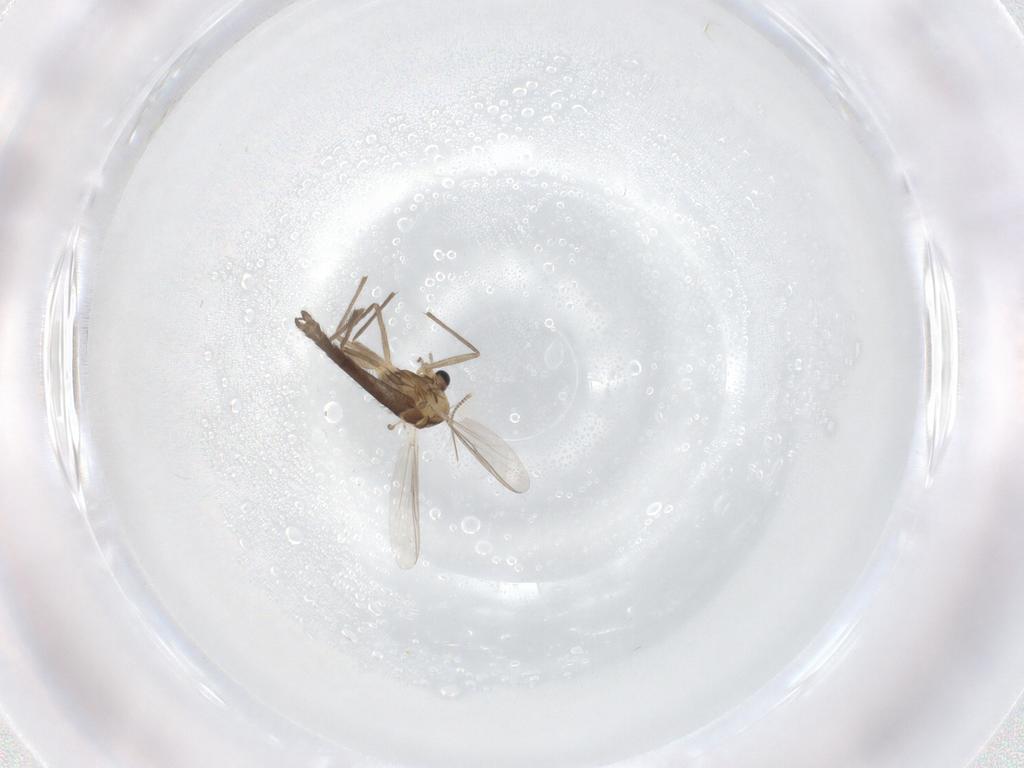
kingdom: Animalia
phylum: Arthropoda
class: Insecta
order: Diptera
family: Chironomidae
